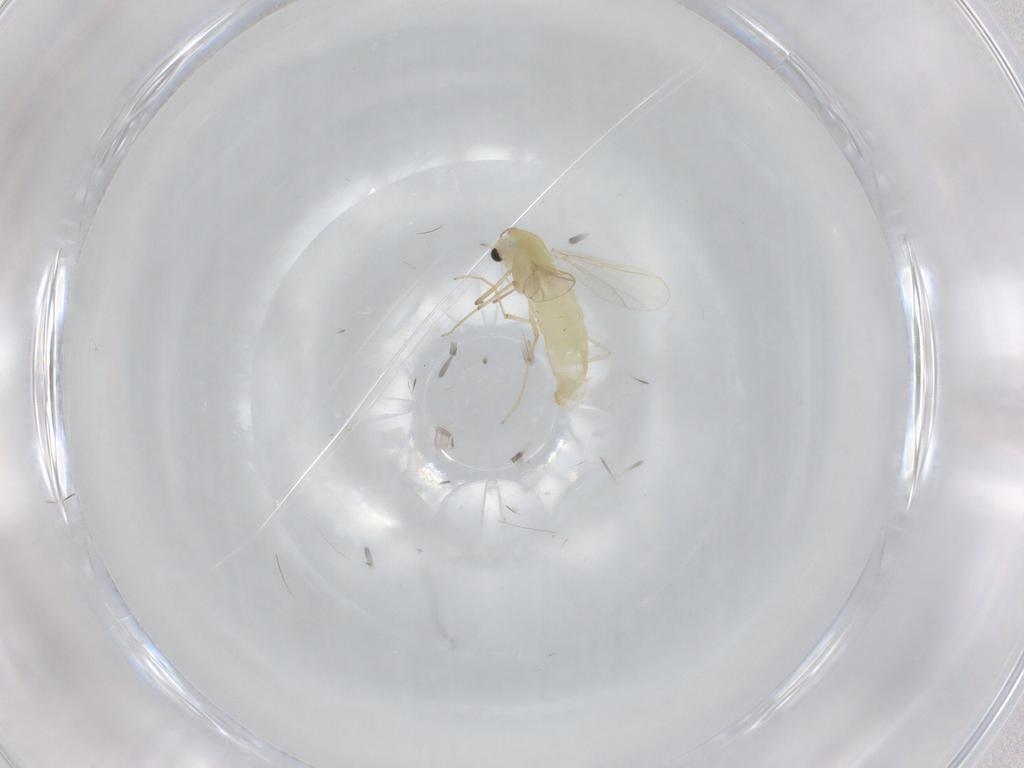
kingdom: Animalia
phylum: Arthropoda
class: Insecta
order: Diptera
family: Chironomidae
